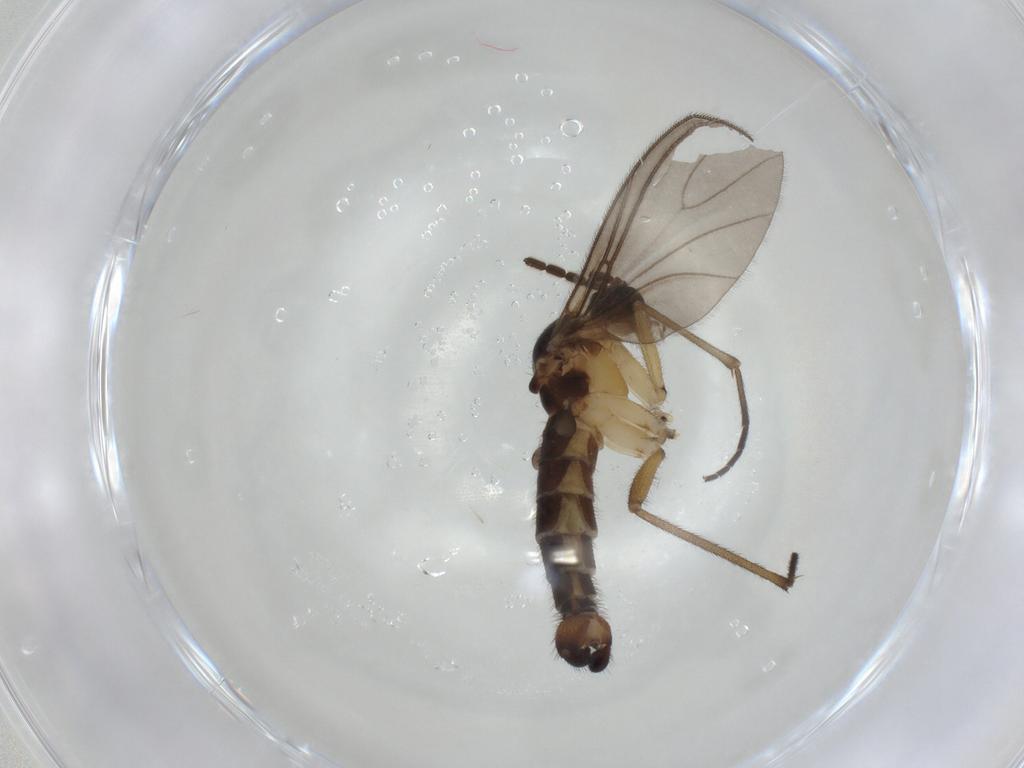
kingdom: Animalia
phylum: Arthropoda
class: Insecta
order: Diptera
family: Sciaridae
